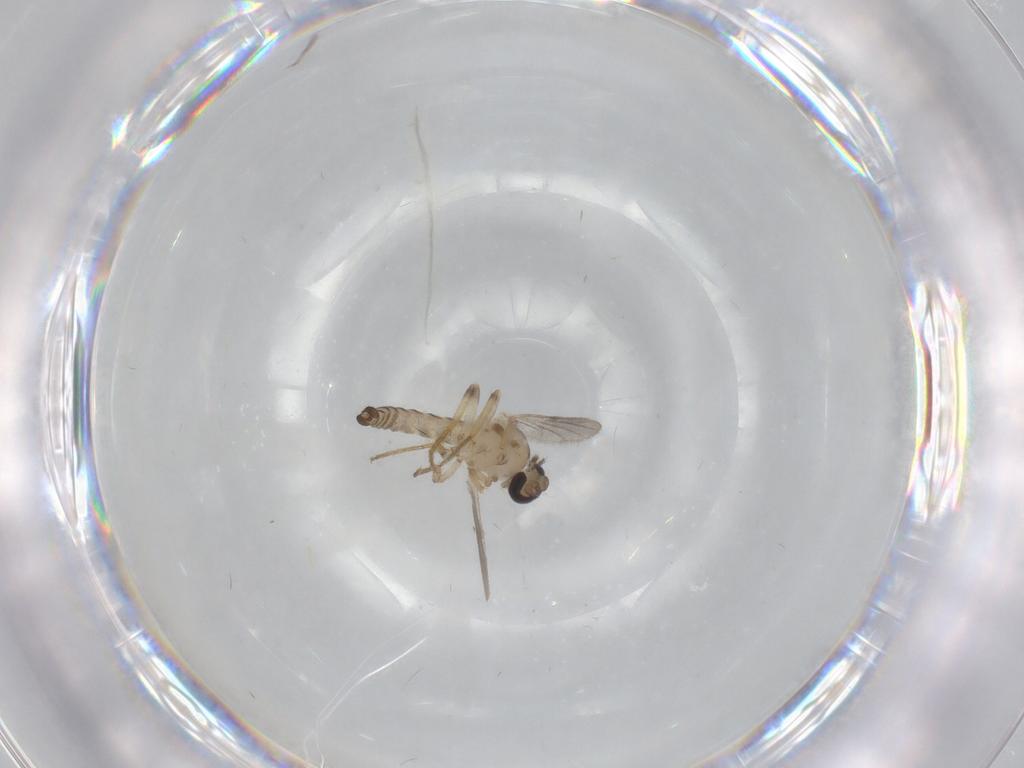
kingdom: Animalia
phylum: Arthropoda
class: Insecta
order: Diptera
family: Ceratopogonidae
